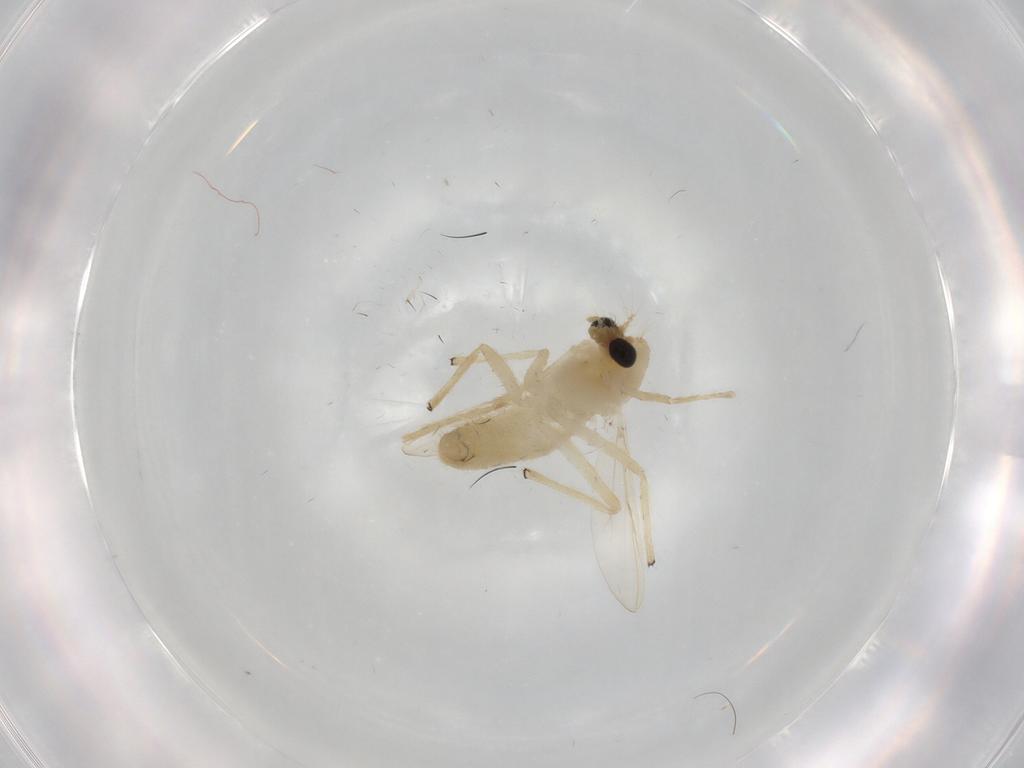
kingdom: Animalia
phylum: Arthropoda
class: Insecta
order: Diptera
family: Chironomidae
